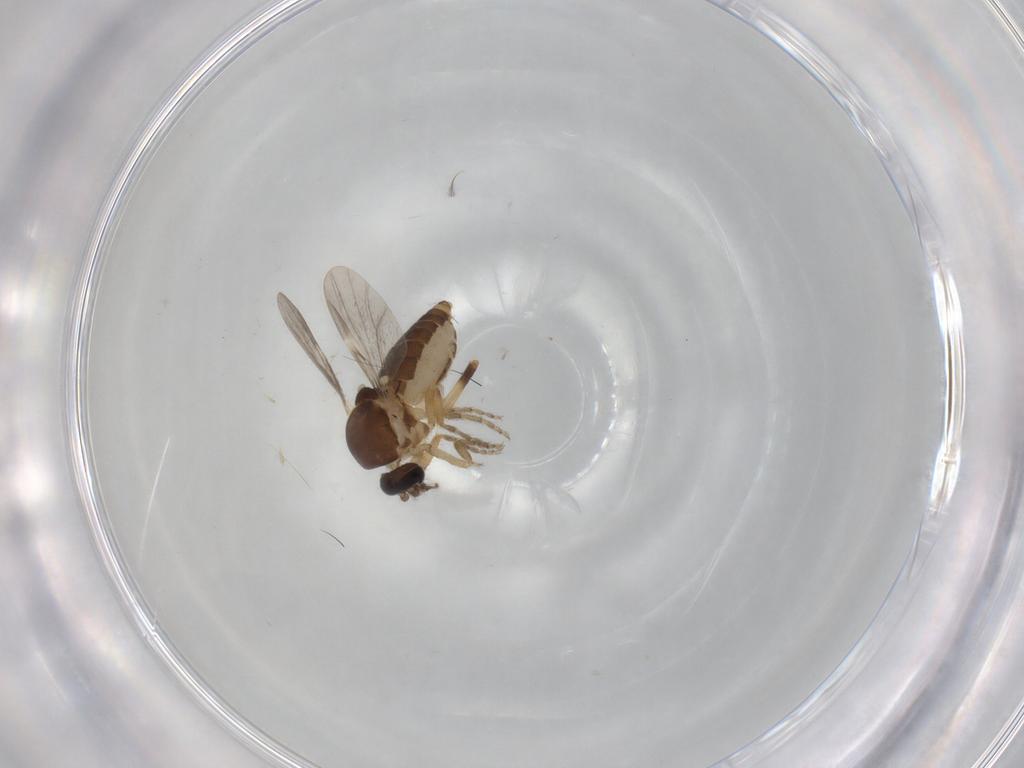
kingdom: Animalia
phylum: Arthropoda
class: Insecta
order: Diptera
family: Ceratopogonidae
